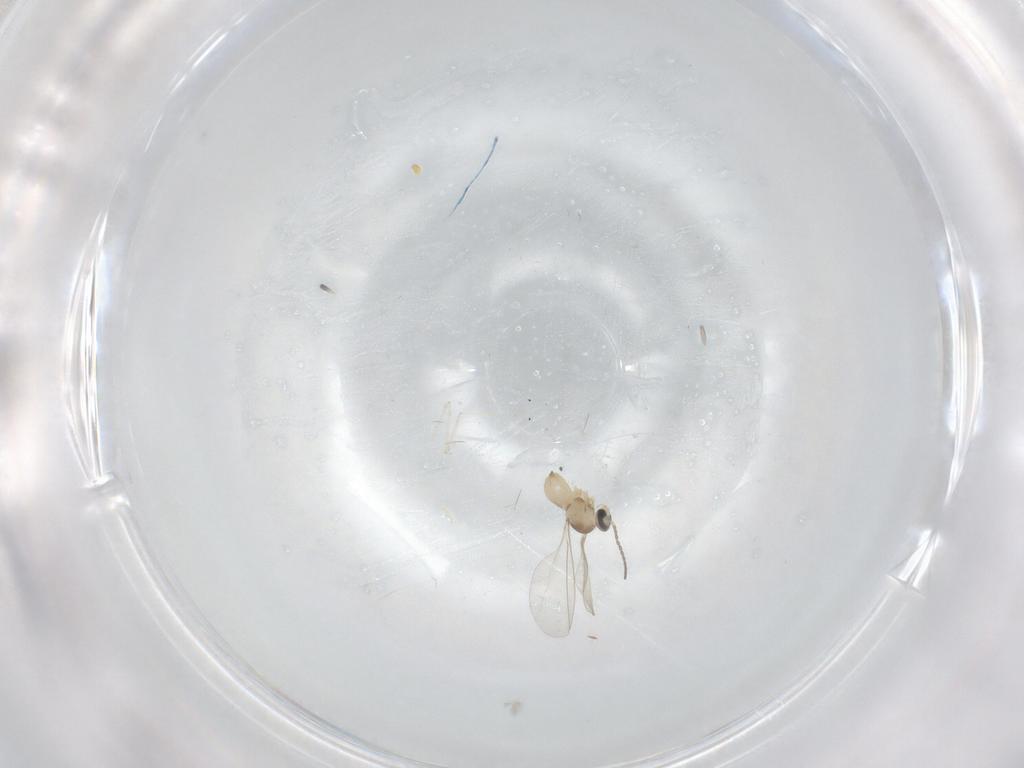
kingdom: Animalia
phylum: Arthropoda
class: Insecta
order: Diptera
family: Cecidomyiidae
